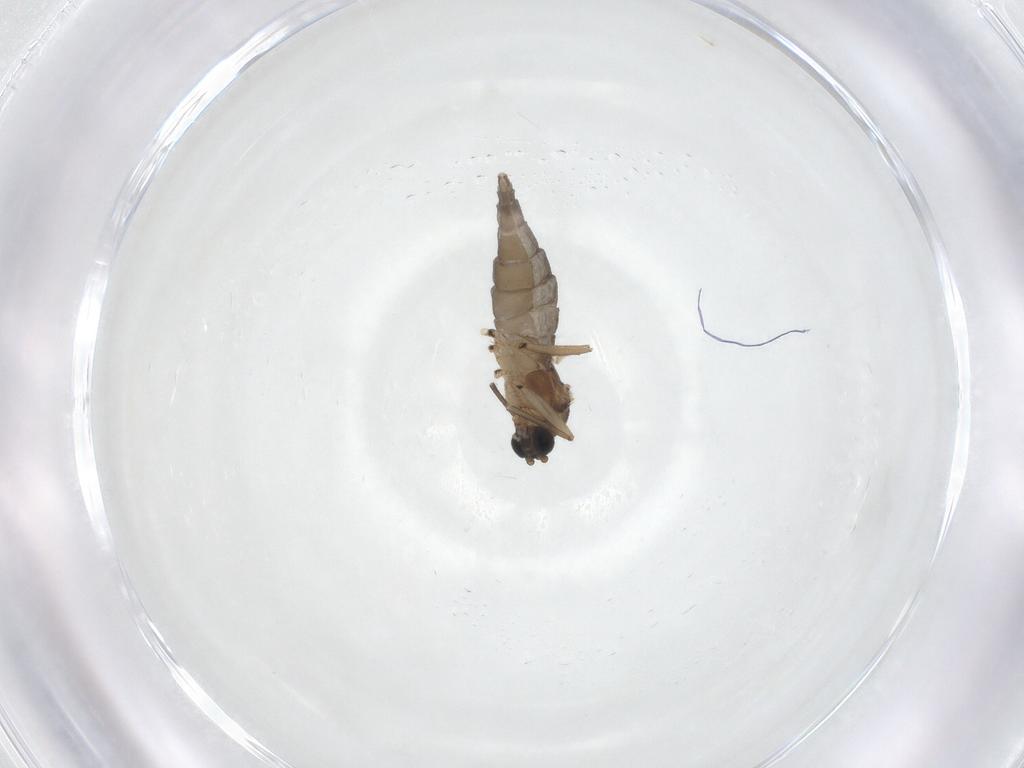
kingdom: Animalia
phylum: Arthropoda
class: Insecta
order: Diptera
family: Sciaridae
